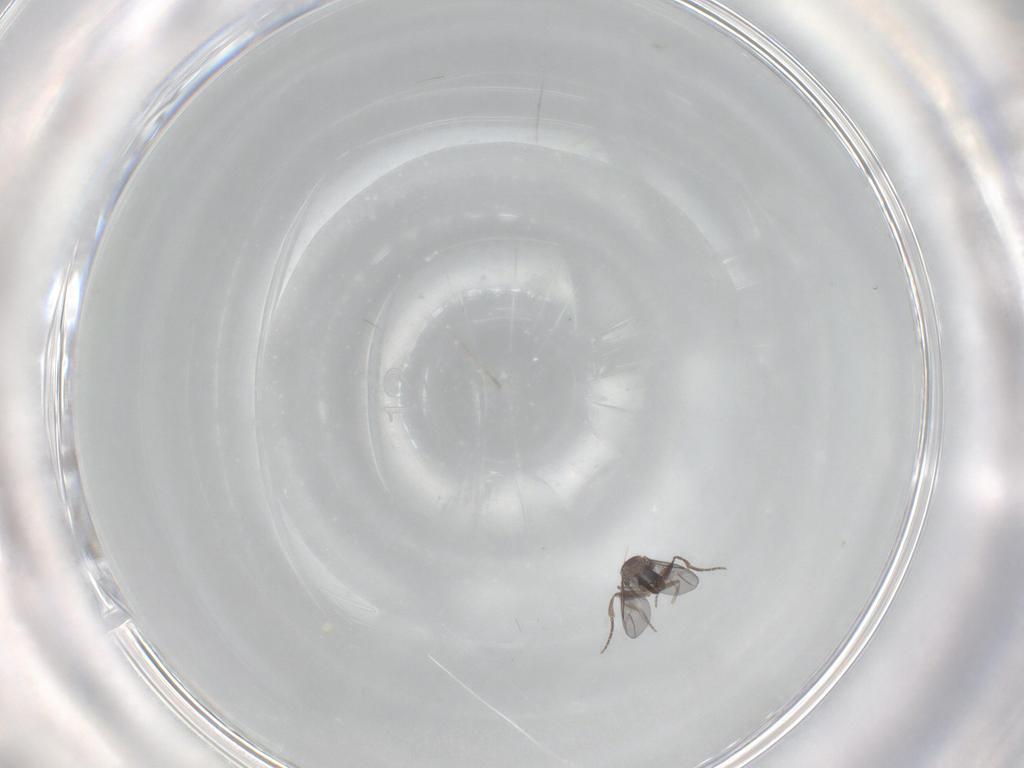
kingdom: Animalia
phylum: Arthropoda
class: Insecta
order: Diptera
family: Phoridae
